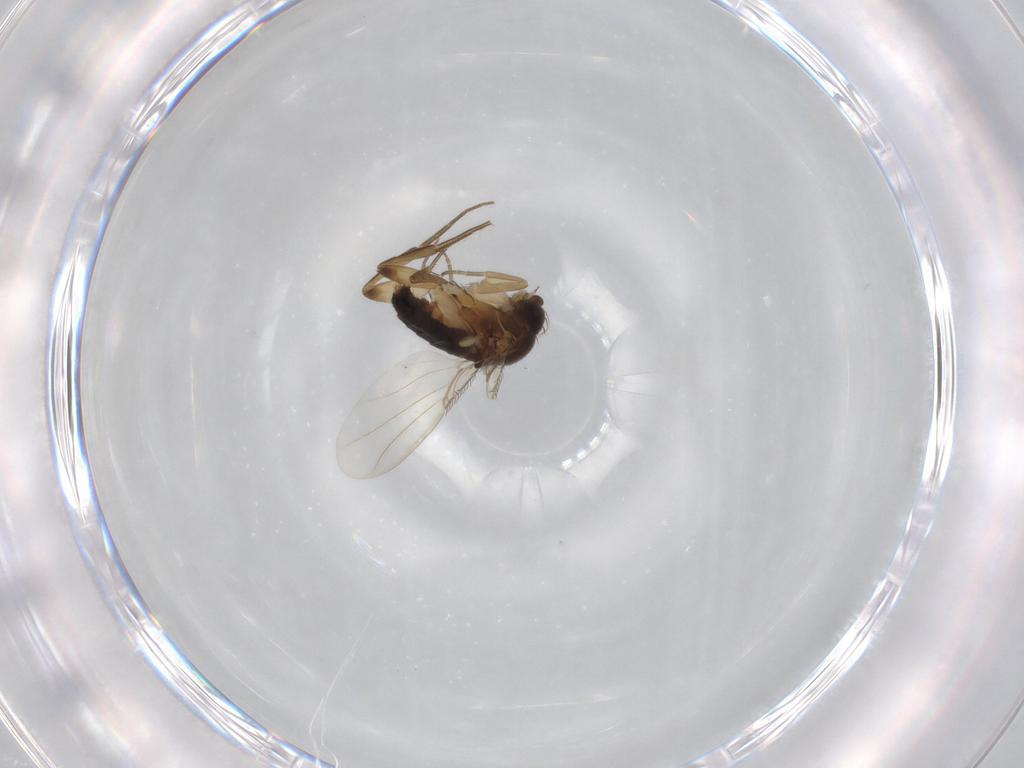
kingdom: Animalia
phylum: Arthropoda
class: Insecta
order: Diptera
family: Phoridae
